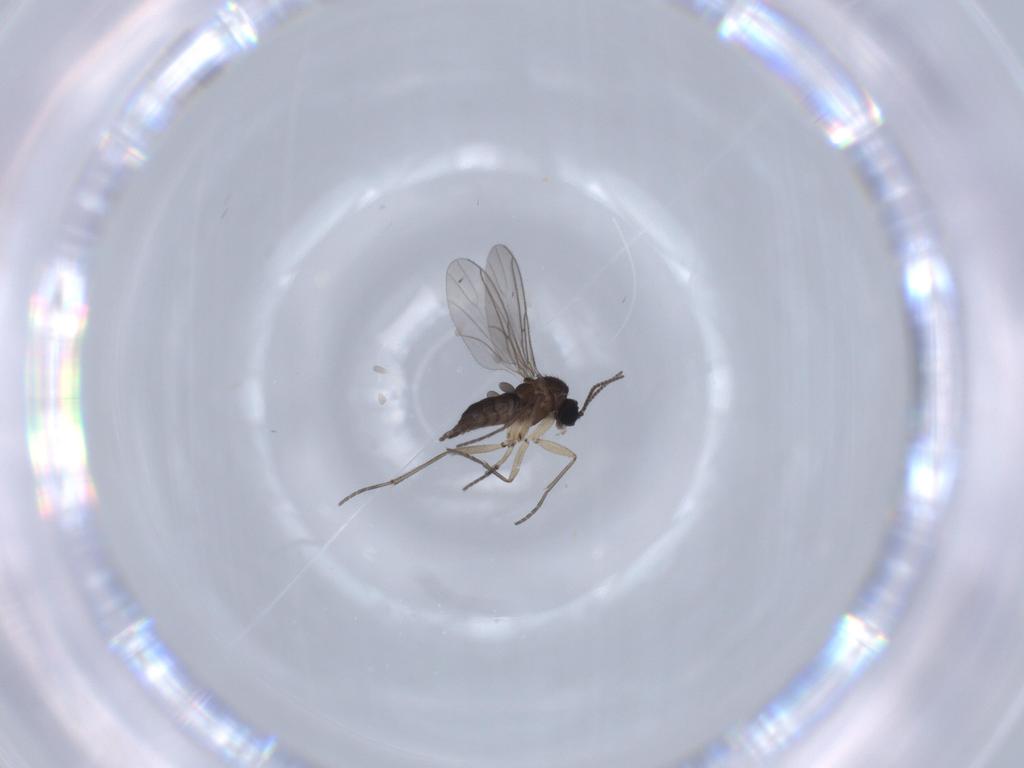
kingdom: Animalia
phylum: Arthropoda
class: Insecta
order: Diptera
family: Sciaridae
